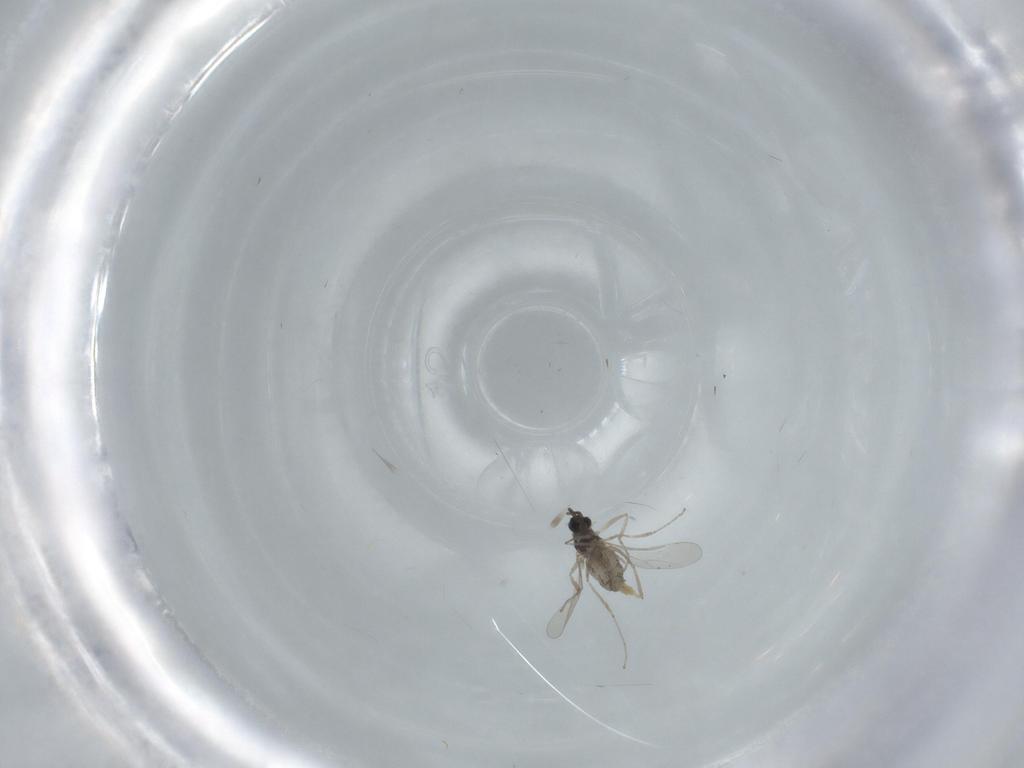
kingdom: Animalia
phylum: Arthropoda
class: Insecta
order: Diptera
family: Cecidomyiidae
